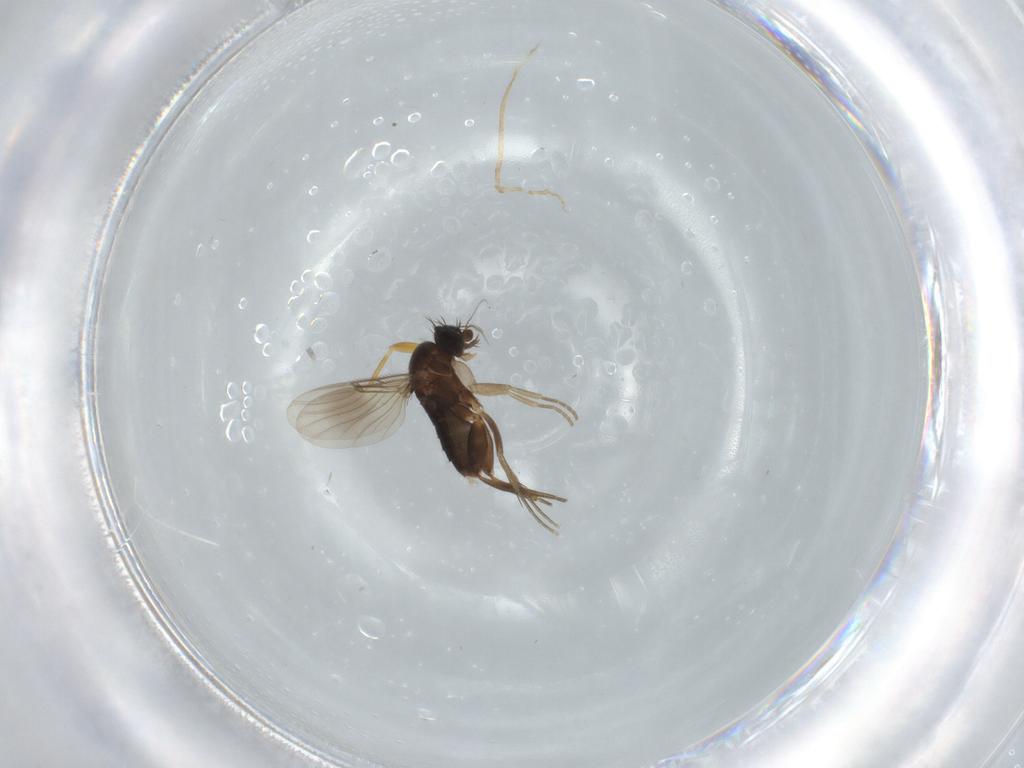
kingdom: Animalia
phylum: Arthropoda
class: Insecta
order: Diptera
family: Phoridae
